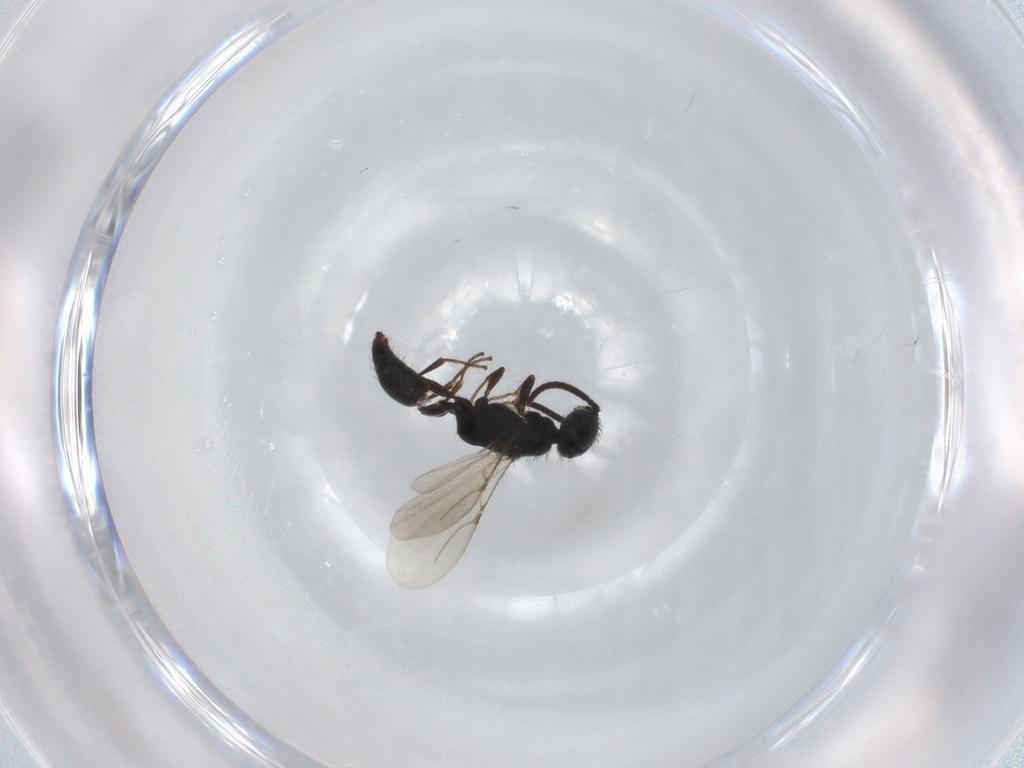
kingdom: Animalia
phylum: Arthropoda
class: Insecta
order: Hymenoptera
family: Bethylidae
